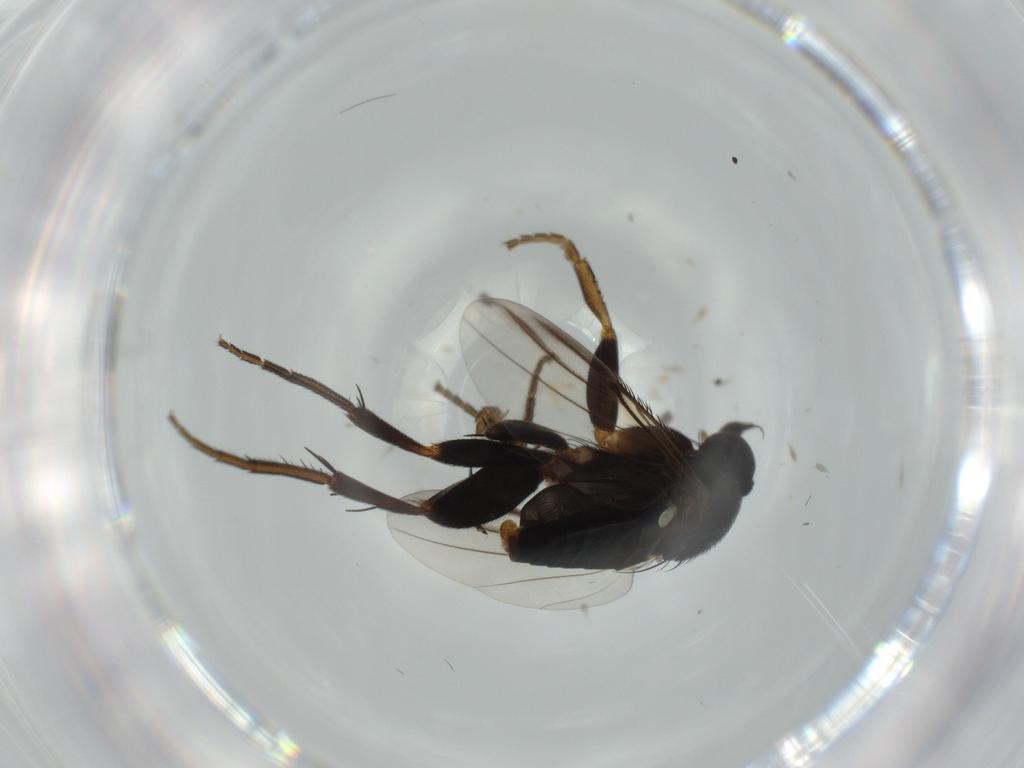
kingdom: Animalia
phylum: Arthropoda
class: Insecta
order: Diptera
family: Phoridae
